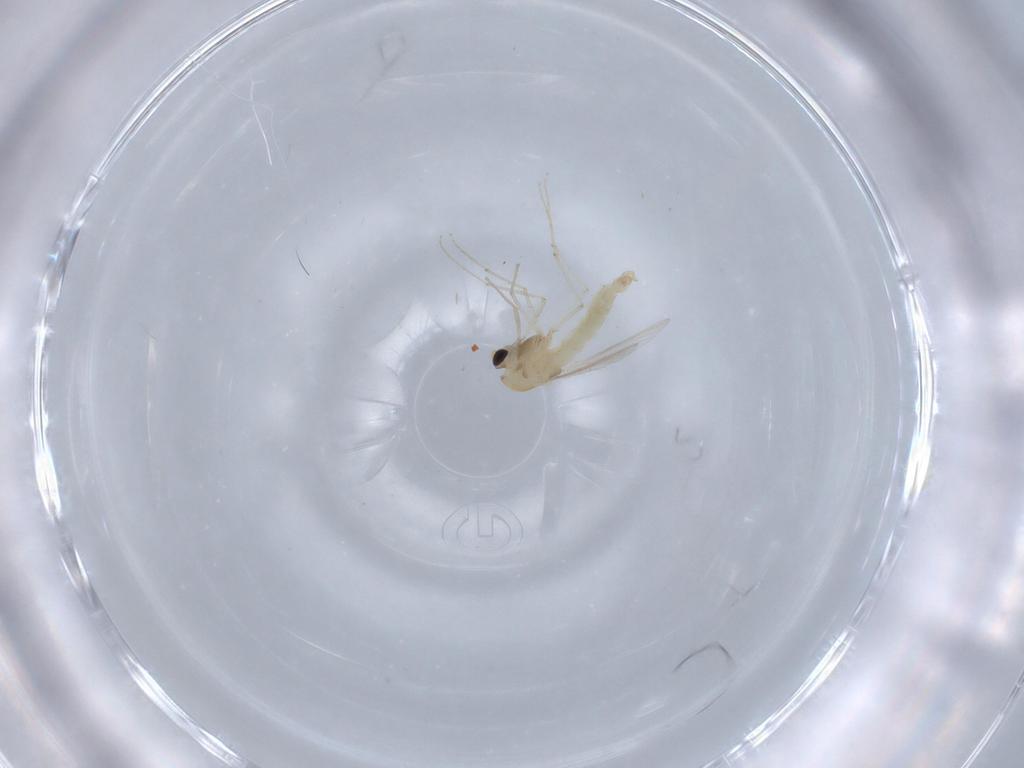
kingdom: Animalia
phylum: Arthropoda
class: Insecta
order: Diptera
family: Chironomidae
